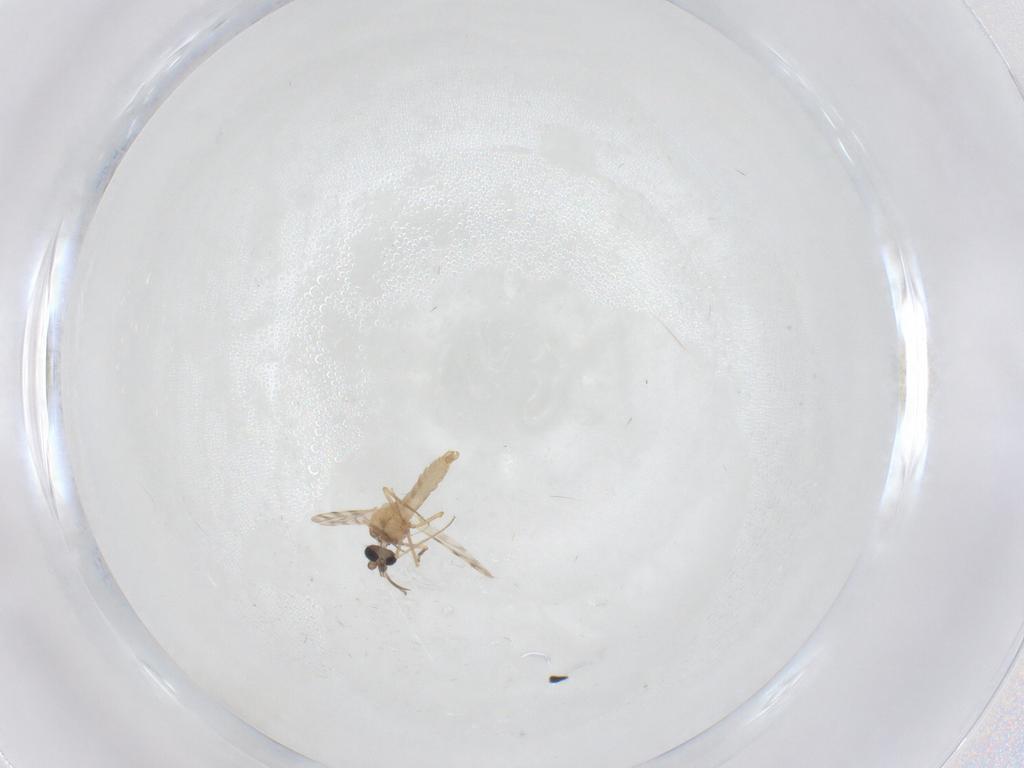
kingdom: Animalia
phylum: Arthropoda
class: Insecta
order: Diptera
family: Ceratopogonidae
